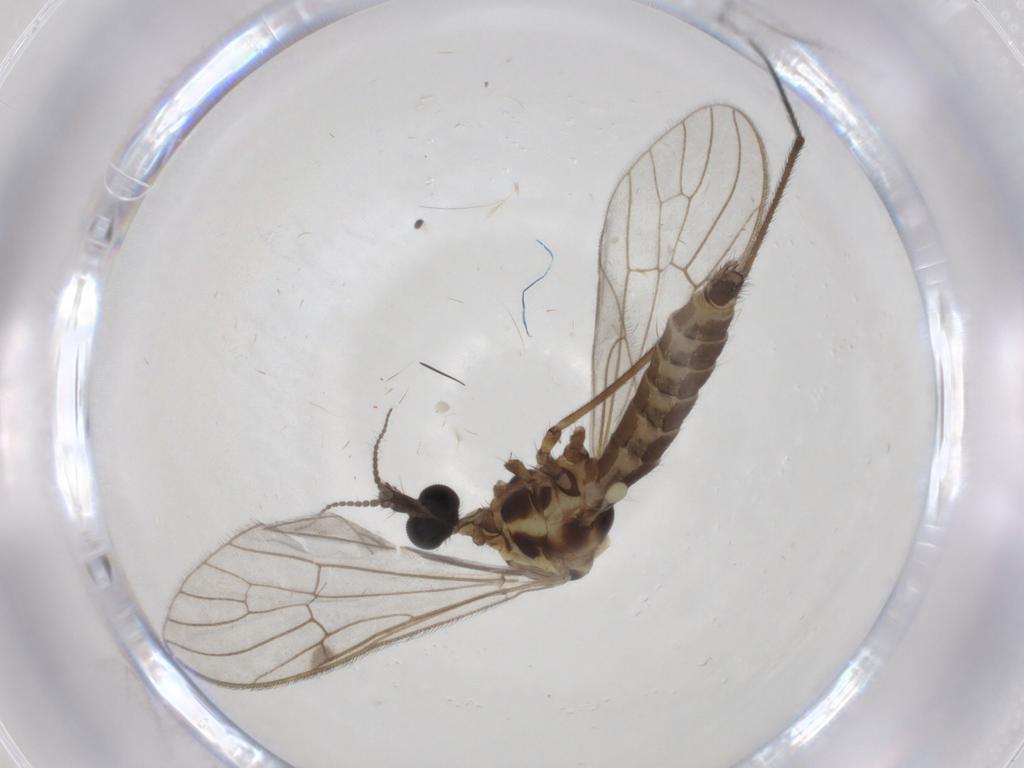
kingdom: Animalia
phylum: Arthropoda
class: Insecta
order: Diptera
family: Limoniidae
